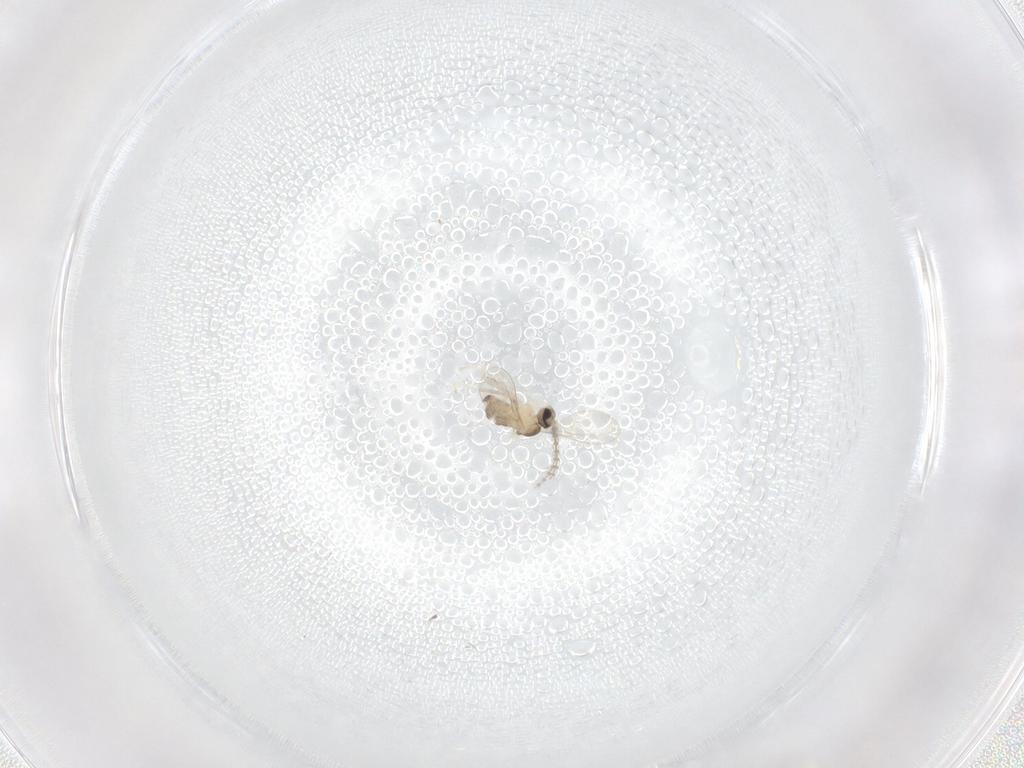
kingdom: Animalia
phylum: Arthropoda
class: Insecta
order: Diptera
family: Cecidomyiidae
